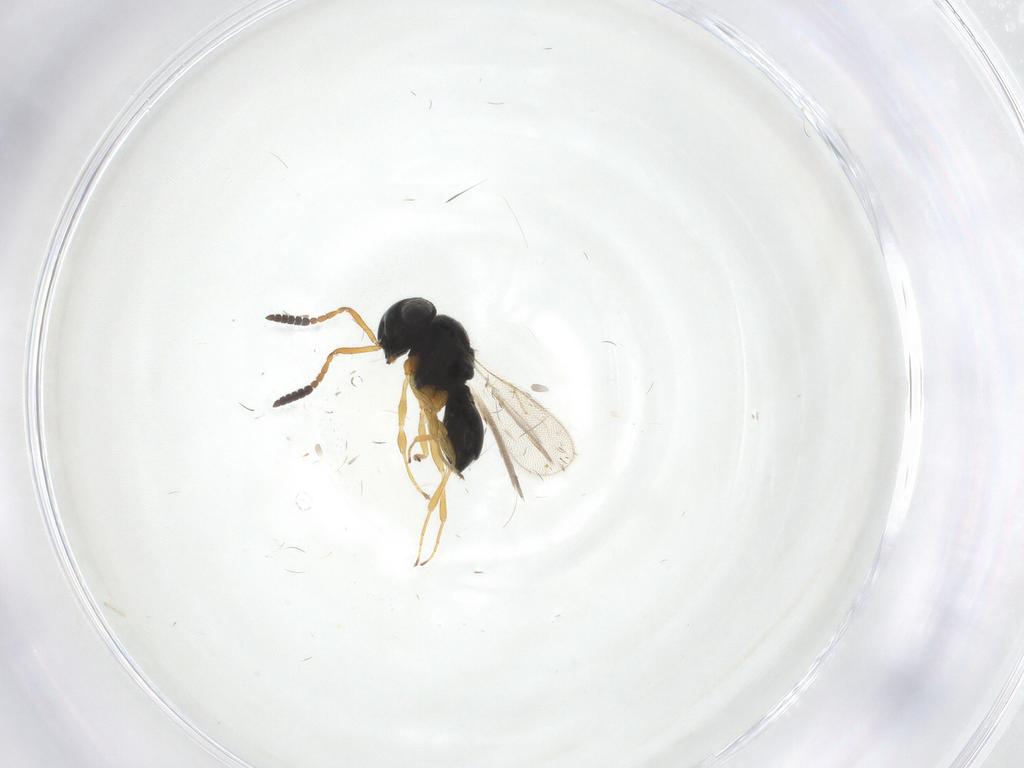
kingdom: Animalia
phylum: Arthropoda
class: Insecta
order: Hymenoptera
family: Scelionidae
